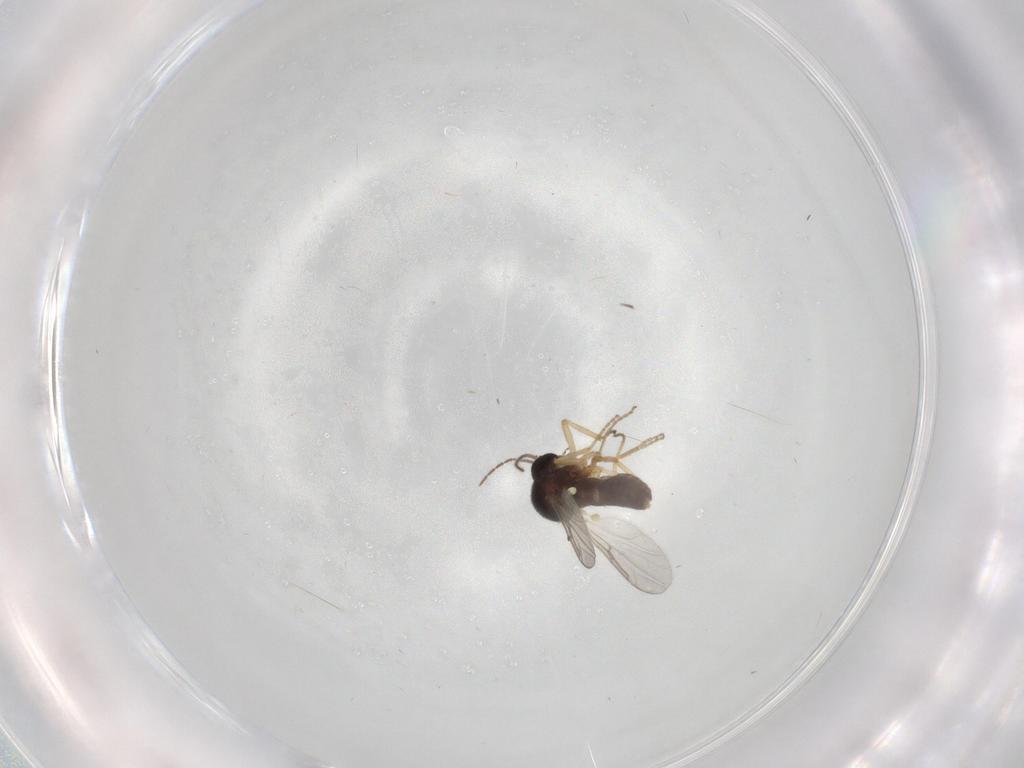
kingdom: Animalia
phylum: Arthropoda
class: Insecta
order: Diptera
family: Ceratopogonidae
